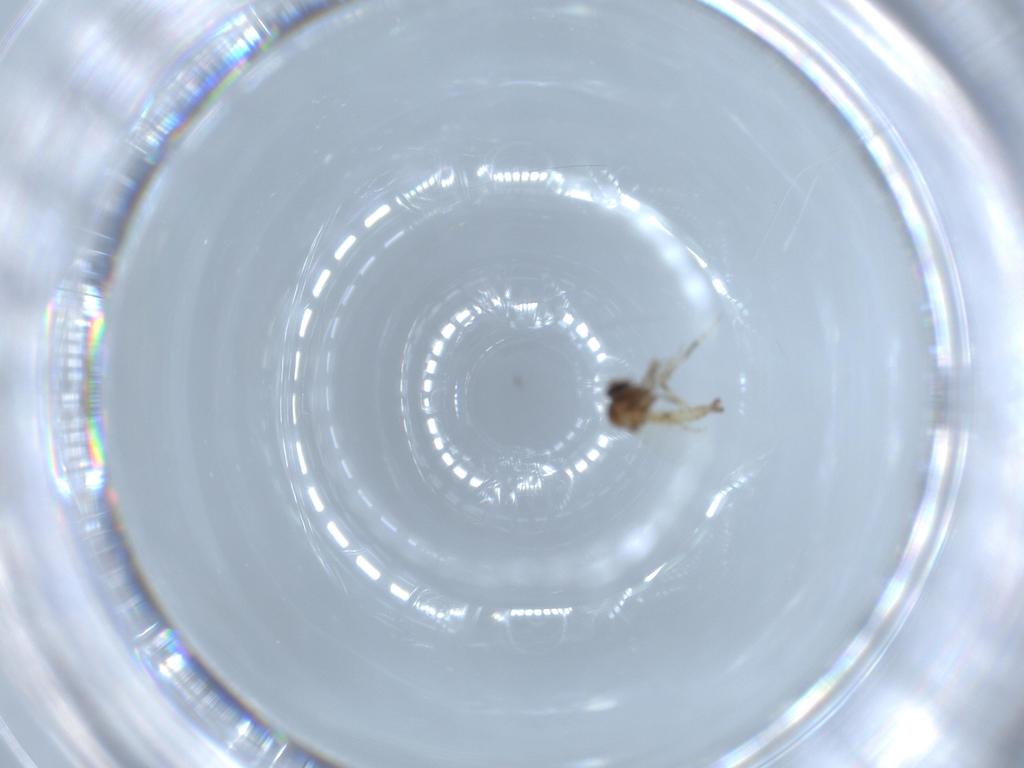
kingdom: Animalia
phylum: Arthropoda
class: Insecta
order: Diptera
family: Ceratopogonidae
